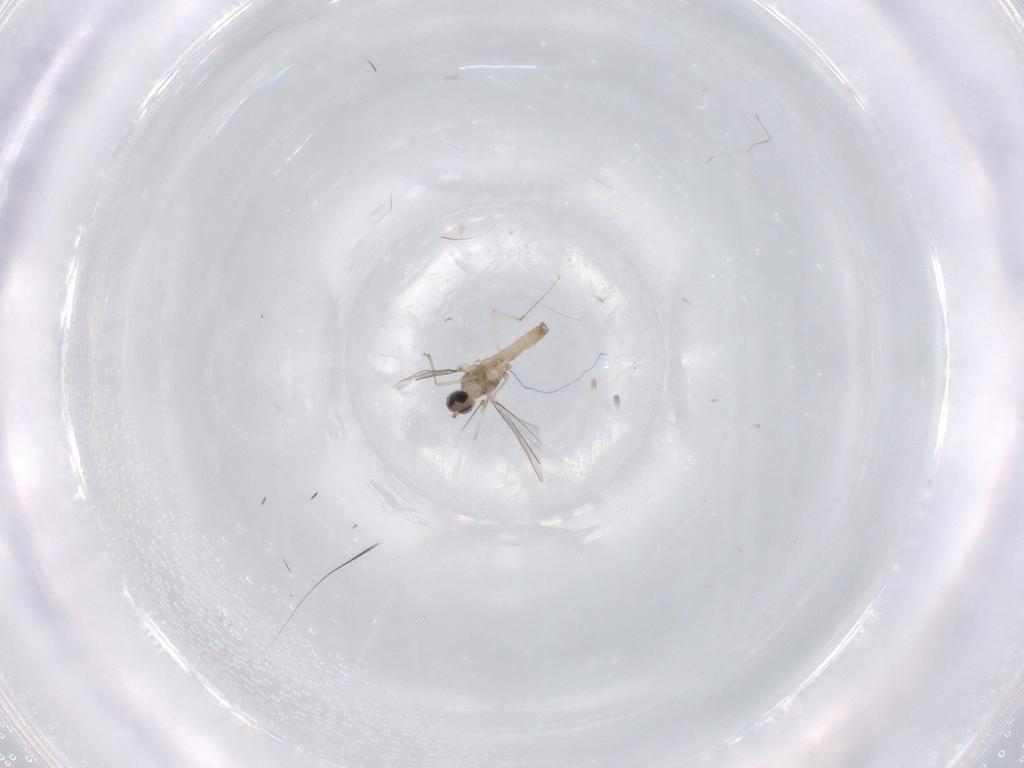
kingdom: Animalia
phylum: Arthropoda
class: Insecta
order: Diptera
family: Cecidomyiidae
